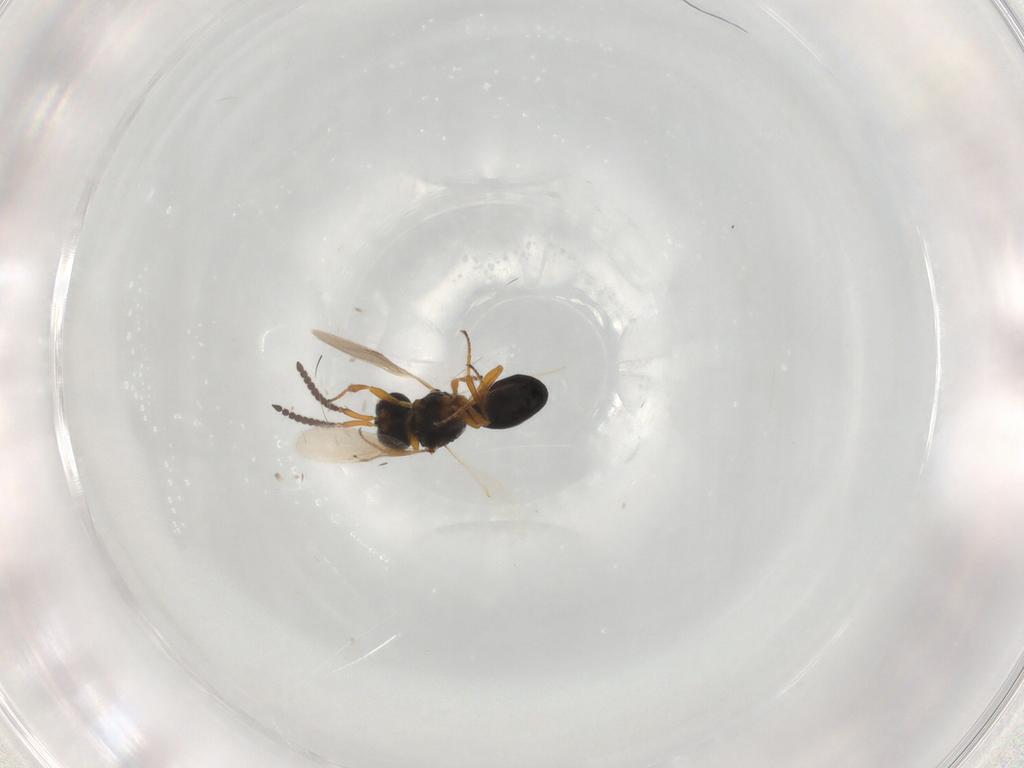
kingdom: Animalia
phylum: Arthropoda
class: Insecta
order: Hymenoptera
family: Scelionidae
